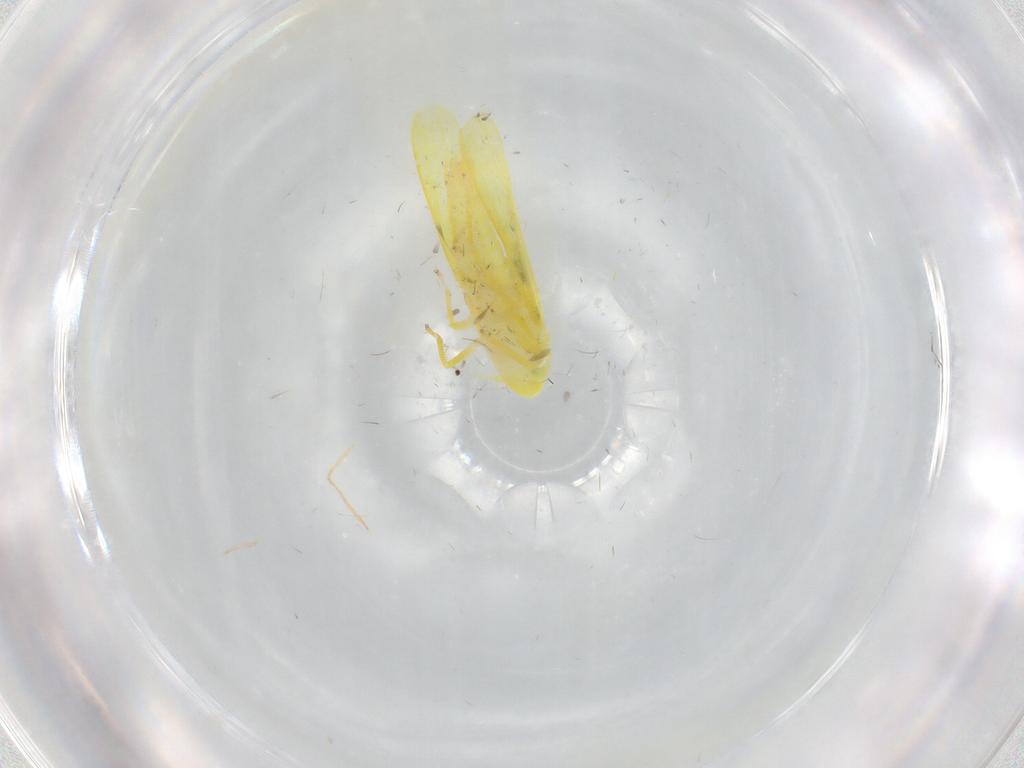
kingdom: Animalia
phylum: Arthropoda
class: Insecta
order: Hemiptera
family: Cicadellidae
